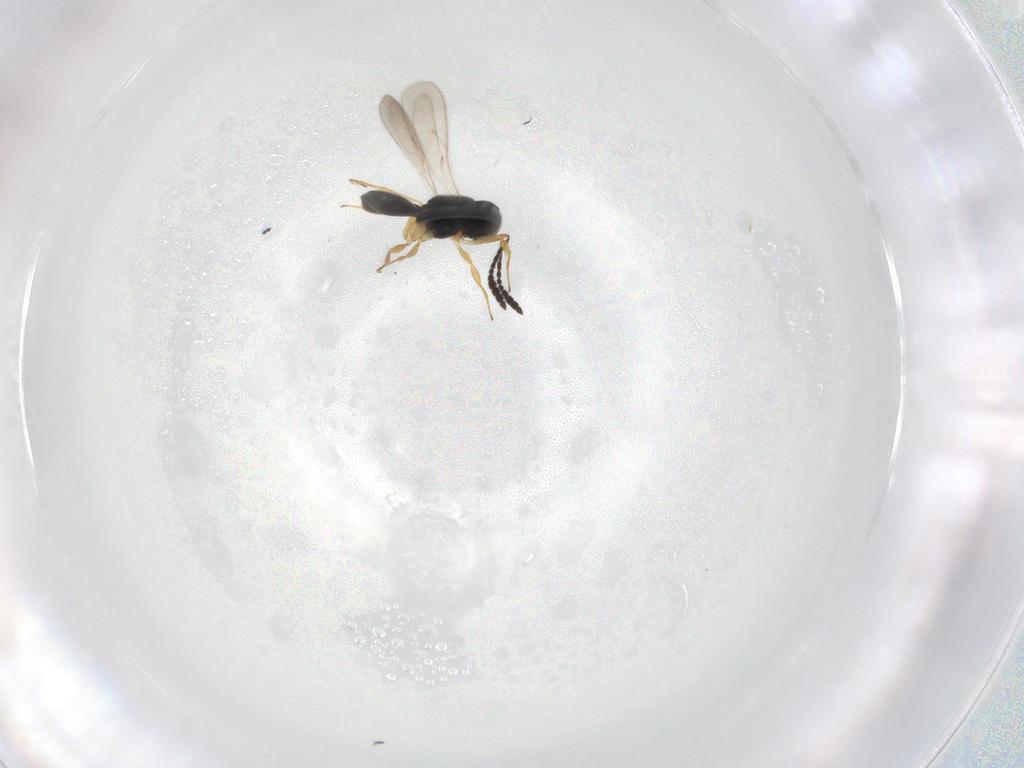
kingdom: Animalia
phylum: Arthropoda
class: Insecta
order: Hymenoptera
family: Scelionidae
